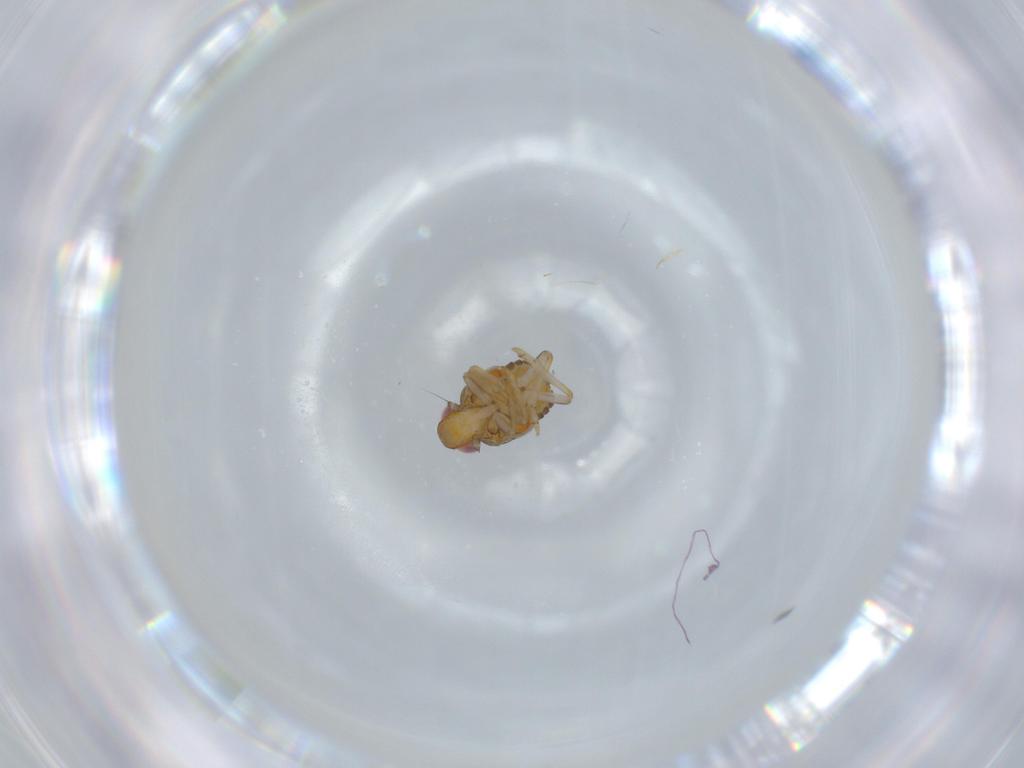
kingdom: Animalia
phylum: Arthropoda
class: Insecta
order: Hemiptera
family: Issidae
